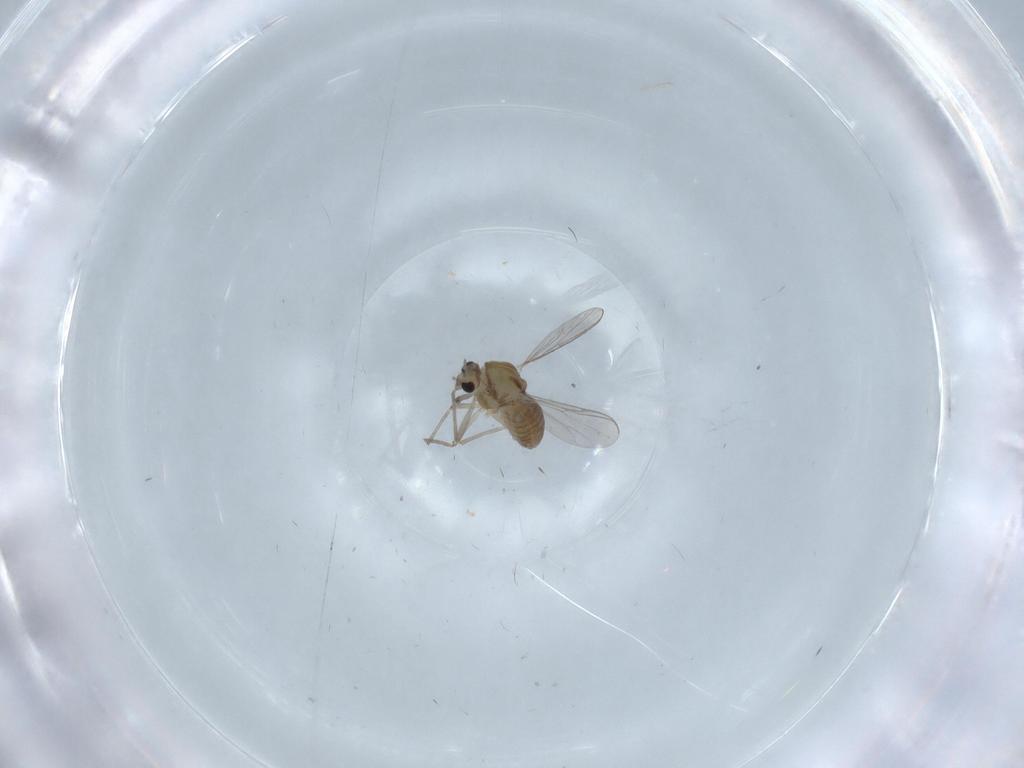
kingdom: Animalia
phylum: Arthropoda
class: Insecta
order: Diptera
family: Chironomidae
